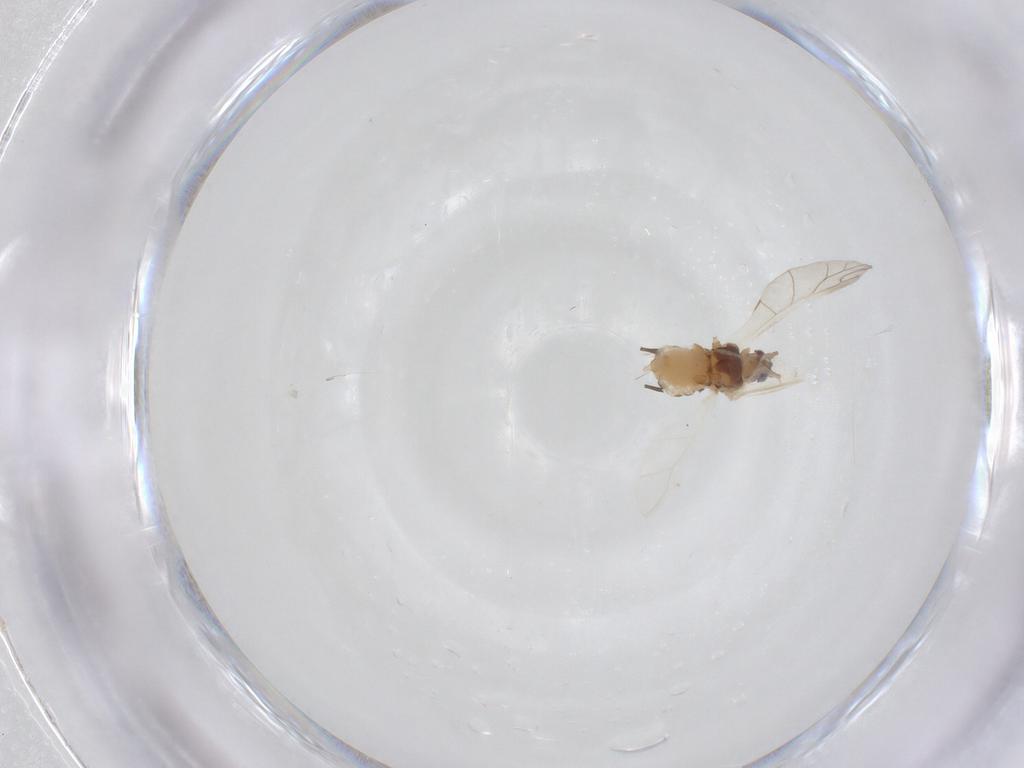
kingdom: Animalia
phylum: Arthropoda
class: Insecta
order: Hemiptera
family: Aphididae
